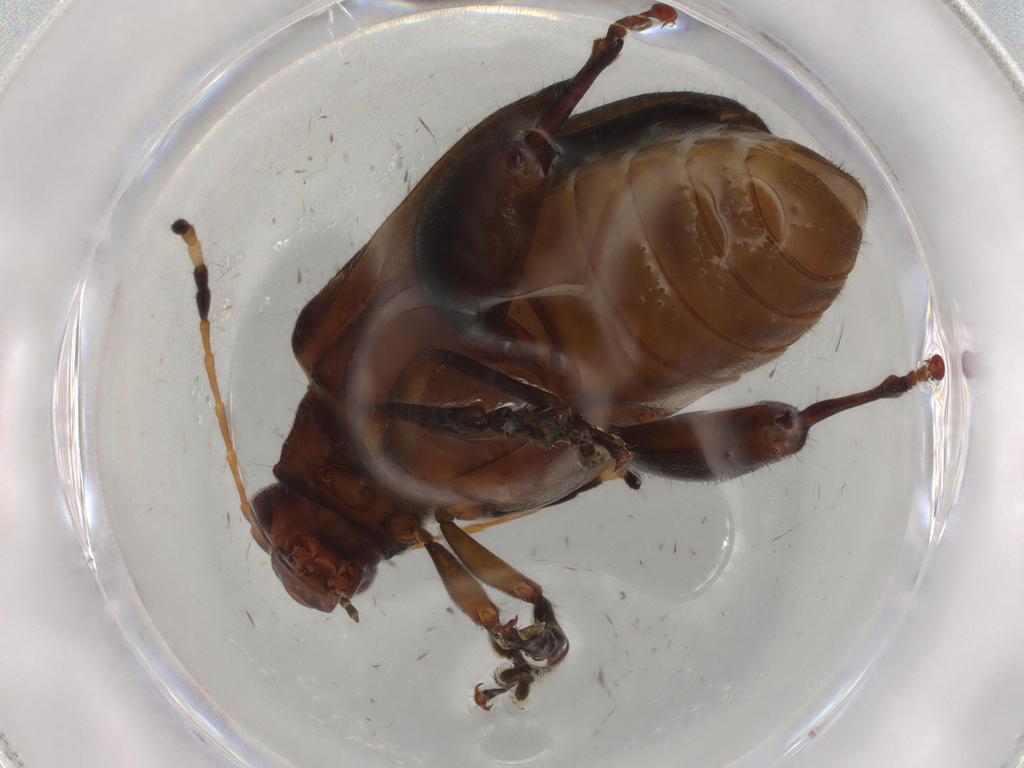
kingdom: Animalia
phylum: Arthropoda
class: Insecta
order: Coleoptera
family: Chrysomelidae
